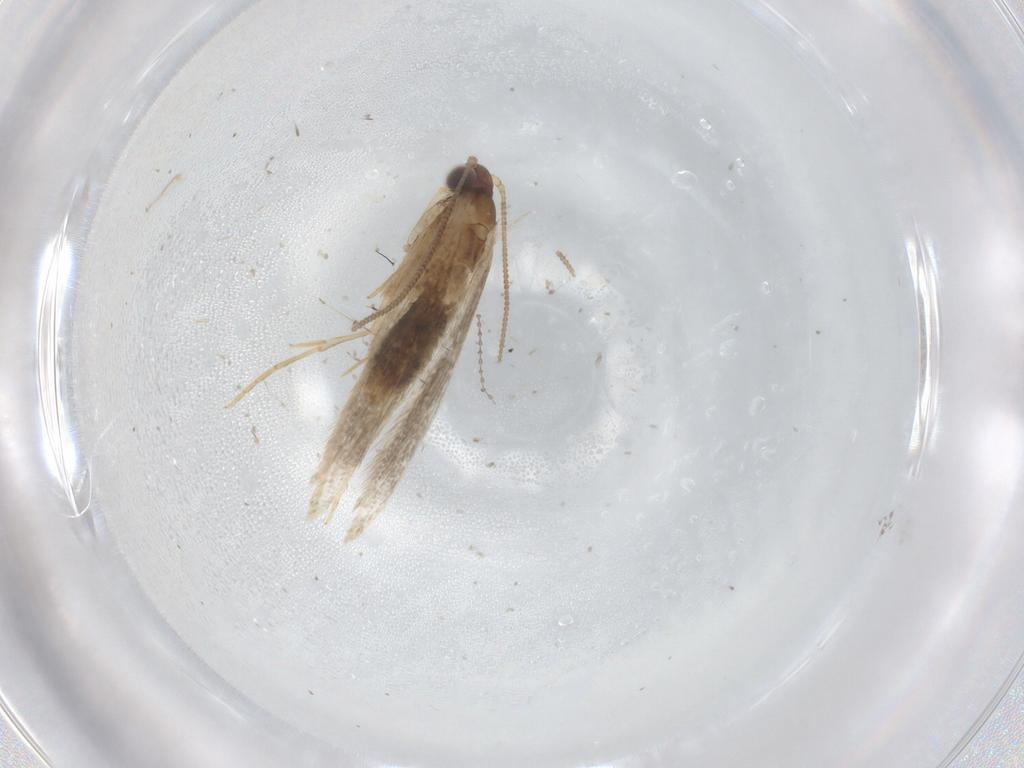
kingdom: Animalia
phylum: Arthropoda
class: Insecta
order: Lepidoptera
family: Tineidae
